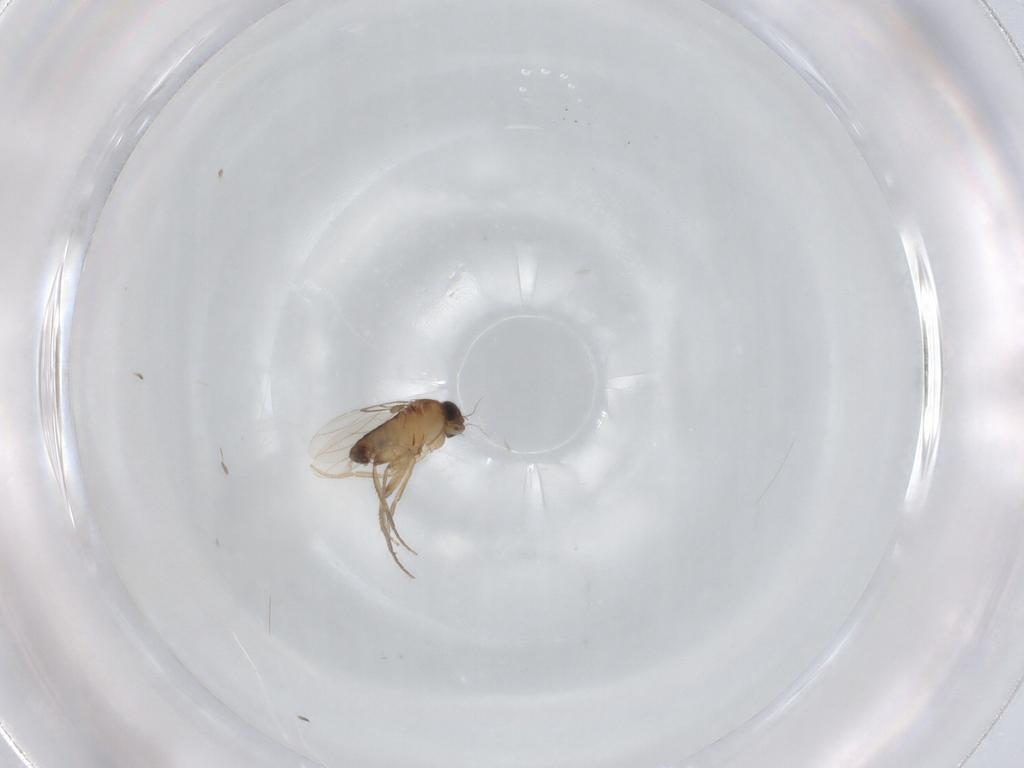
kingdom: Animalia
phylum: Arthropoda
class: Insecta
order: Diptera
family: Phoridae
